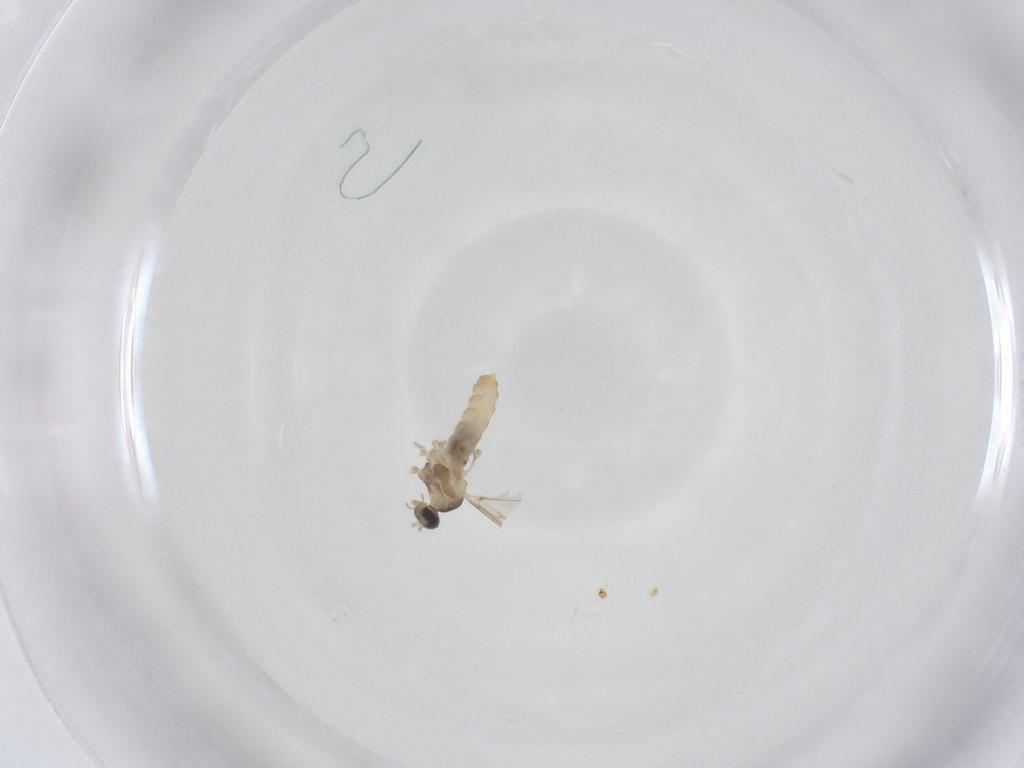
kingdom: Animalia
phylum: Arthropoda
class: Insecta
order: Diptera
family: Cecidomyiidae
